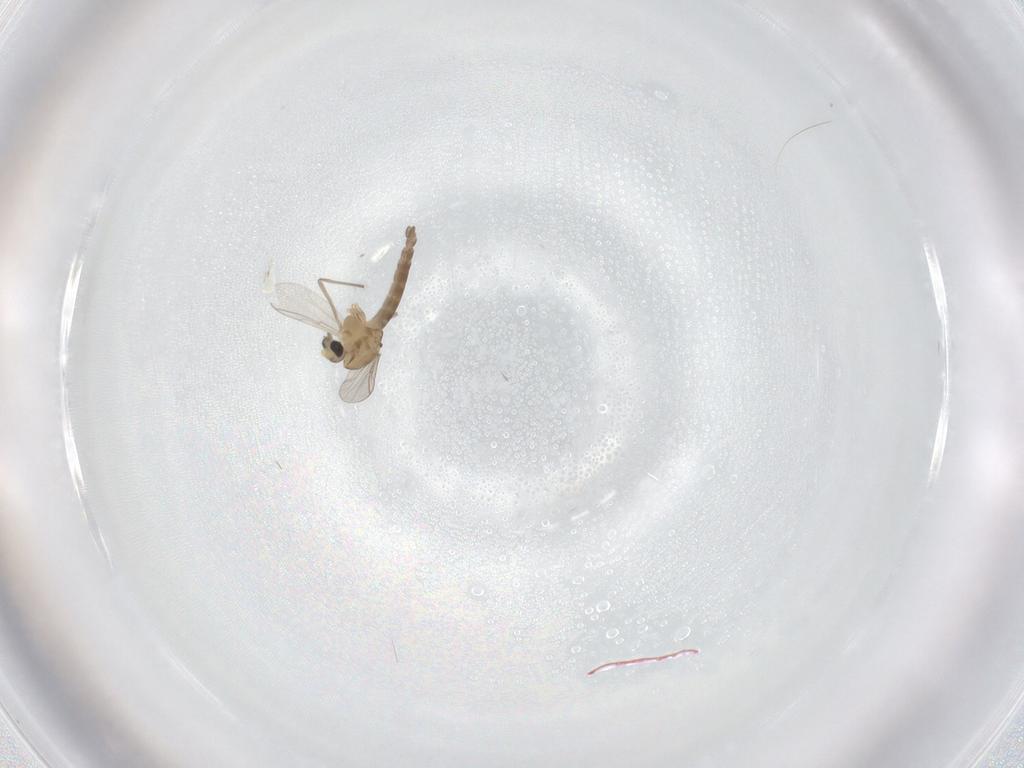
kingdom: Animalia
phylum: Arthropoda
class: Insecta
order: Diptera
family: Chironomidae
